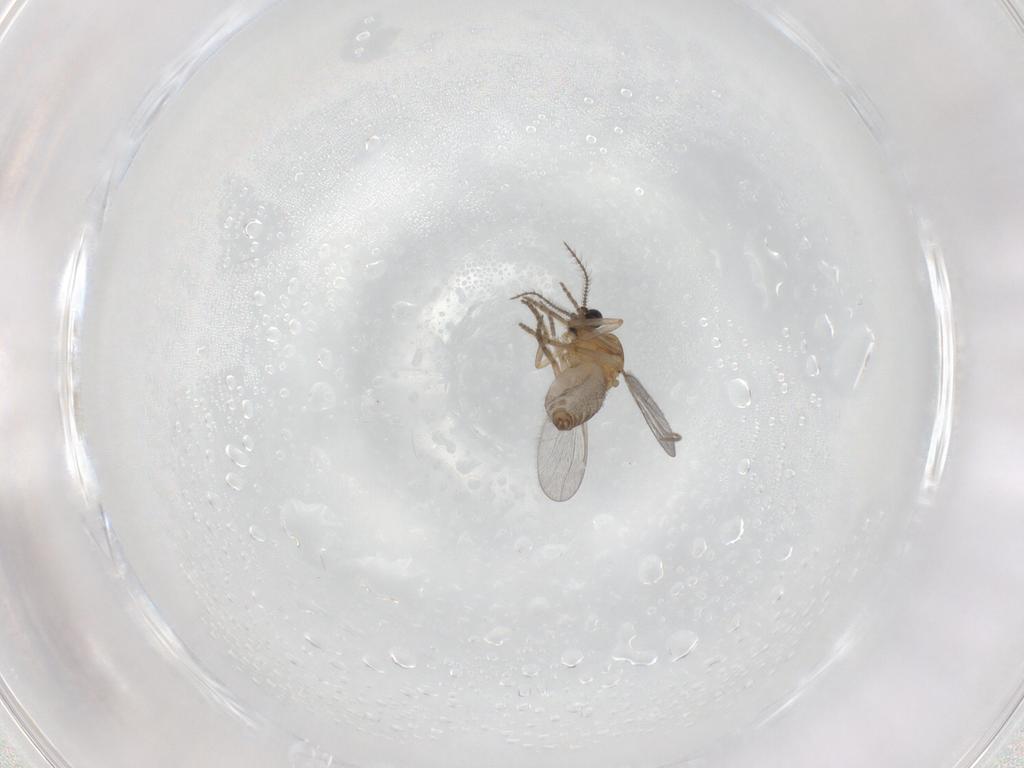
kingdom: Animalia
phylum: Arthropoda
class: Insecta
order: Diptera
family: Ceratopogonidae
